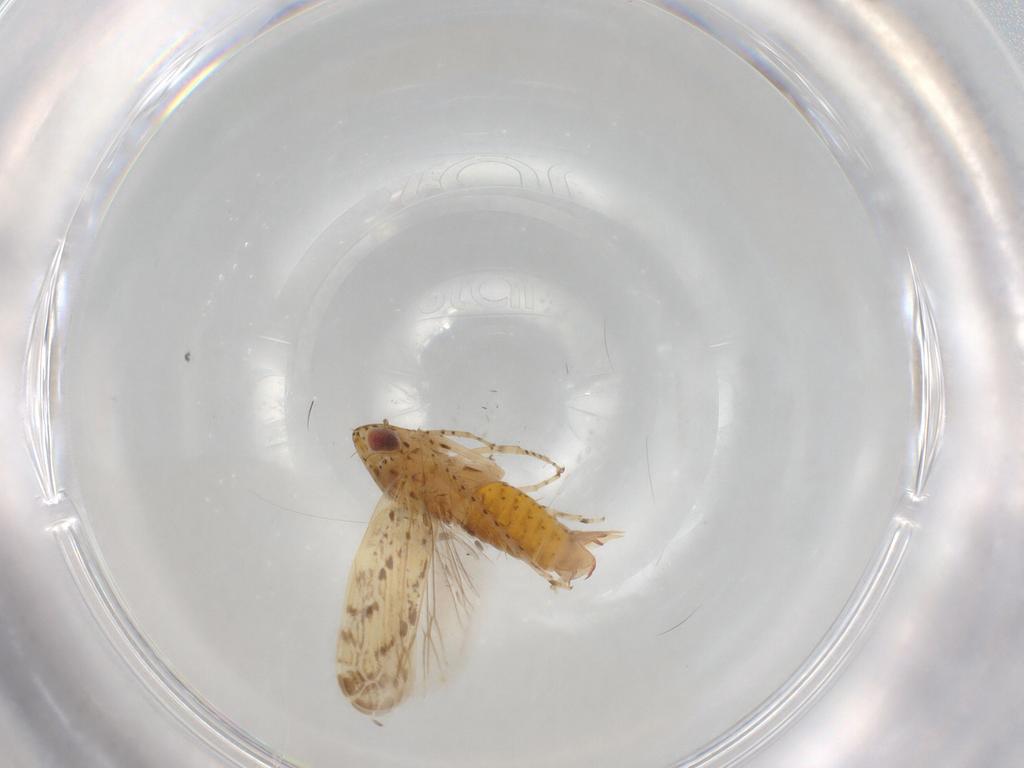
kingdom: Animalia
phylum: Arthropoda
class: Insecta
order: Hemiptera
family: Cicadellidae
